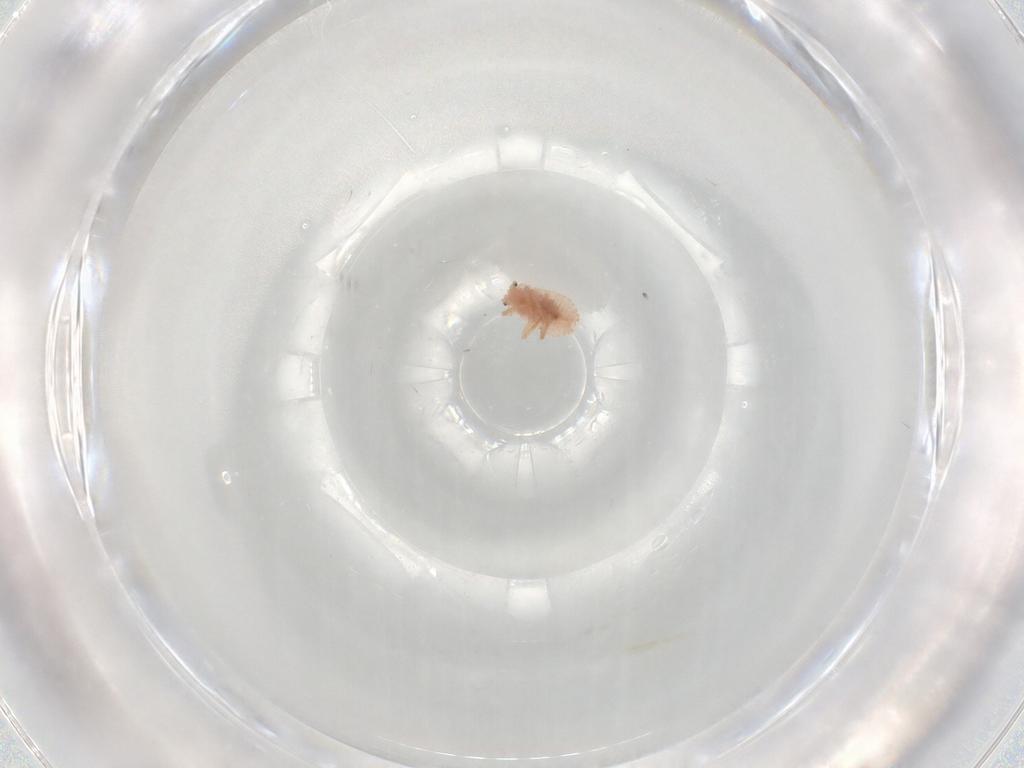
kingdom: Animalia
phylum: Arthropoda
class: Insecta
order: Hemiptera
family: Coccoidea_incertae_sedis
